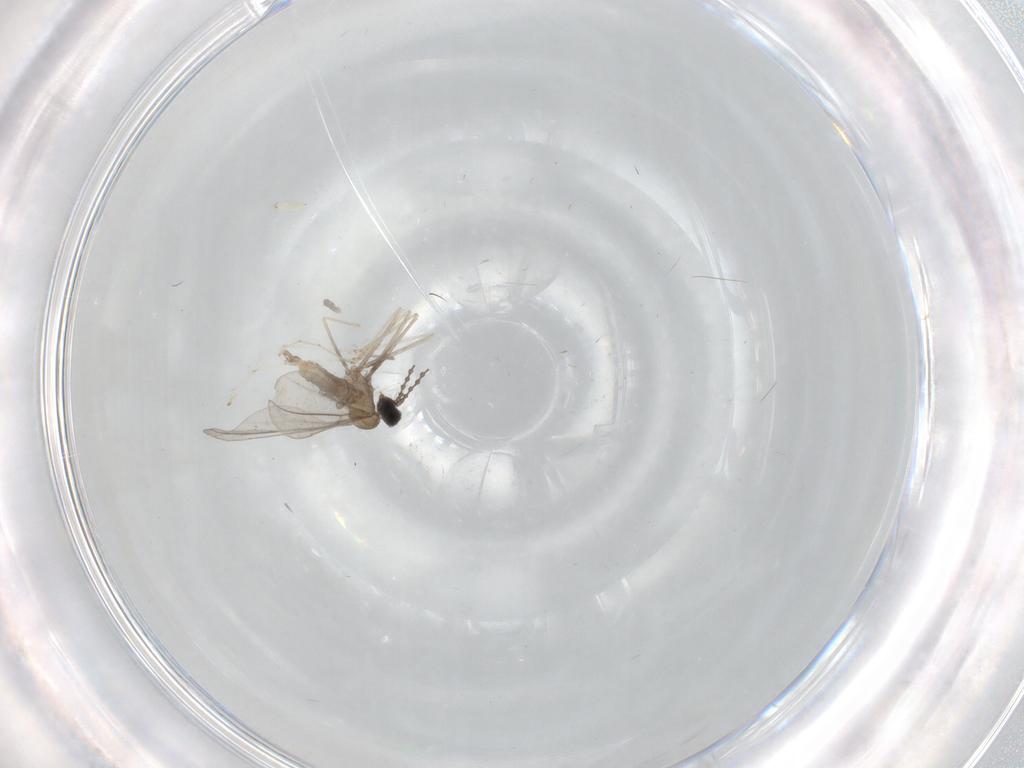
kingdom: Animalia
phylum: Arthropoda
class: Insecta
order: Diptera
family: Cecidomyiidae
